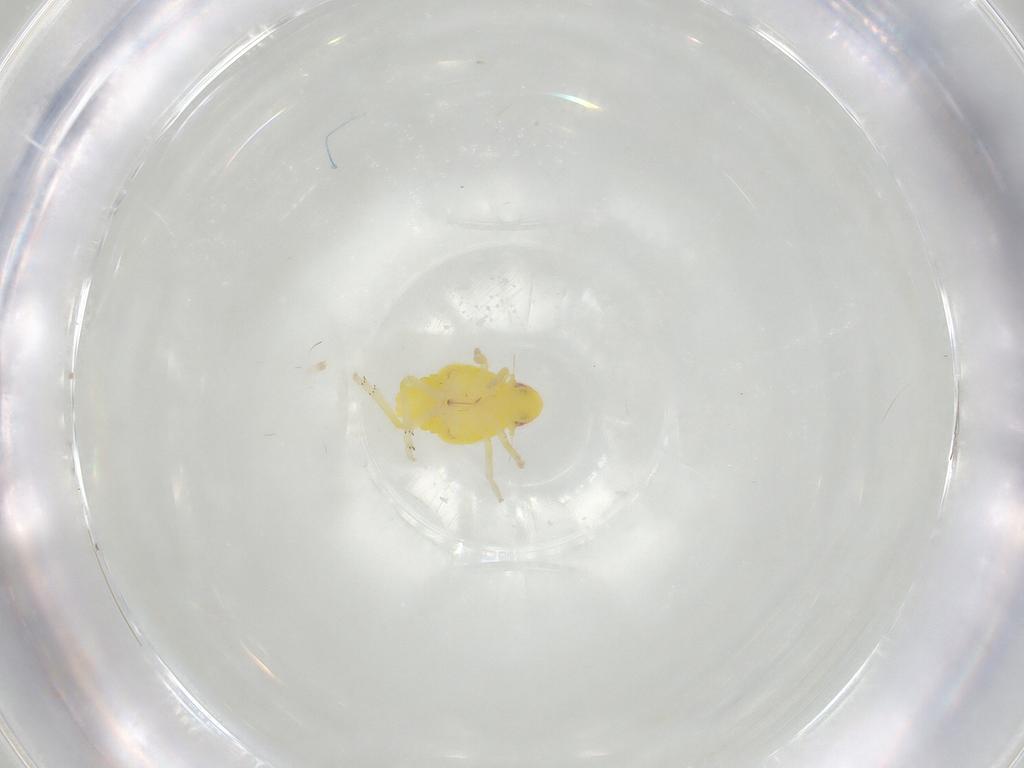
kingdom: Animalia
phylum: Arthropoda
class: Insecta
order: Hemiptera
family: Tropiduchidae
